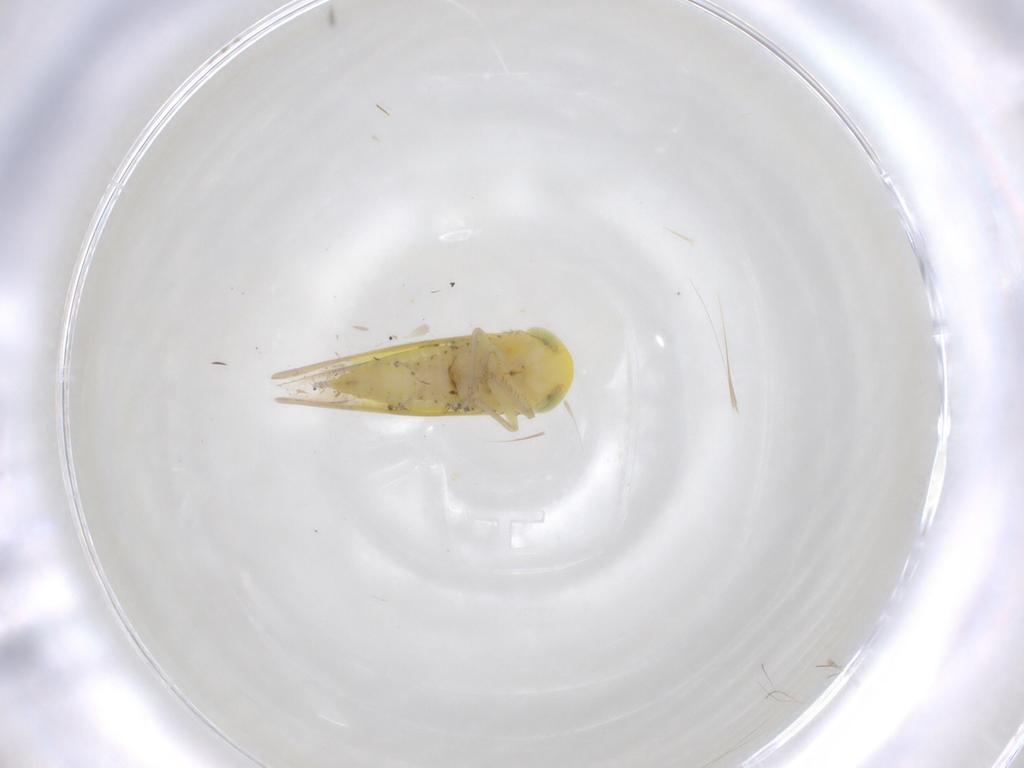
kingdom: Animalia
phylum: Arthropoda
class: Insecta
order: Hemiptera
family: Cicadellidae
